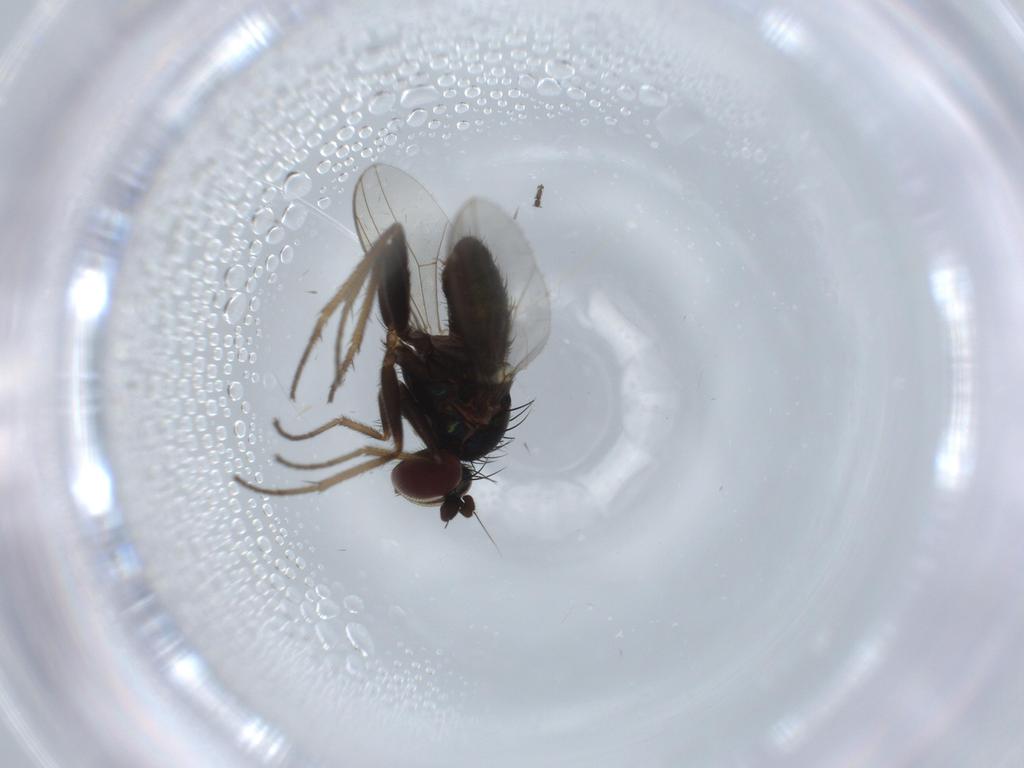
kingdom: Animalia
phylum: Arthropoda
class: Insecta
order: Diptera
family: Dolichopodidae
